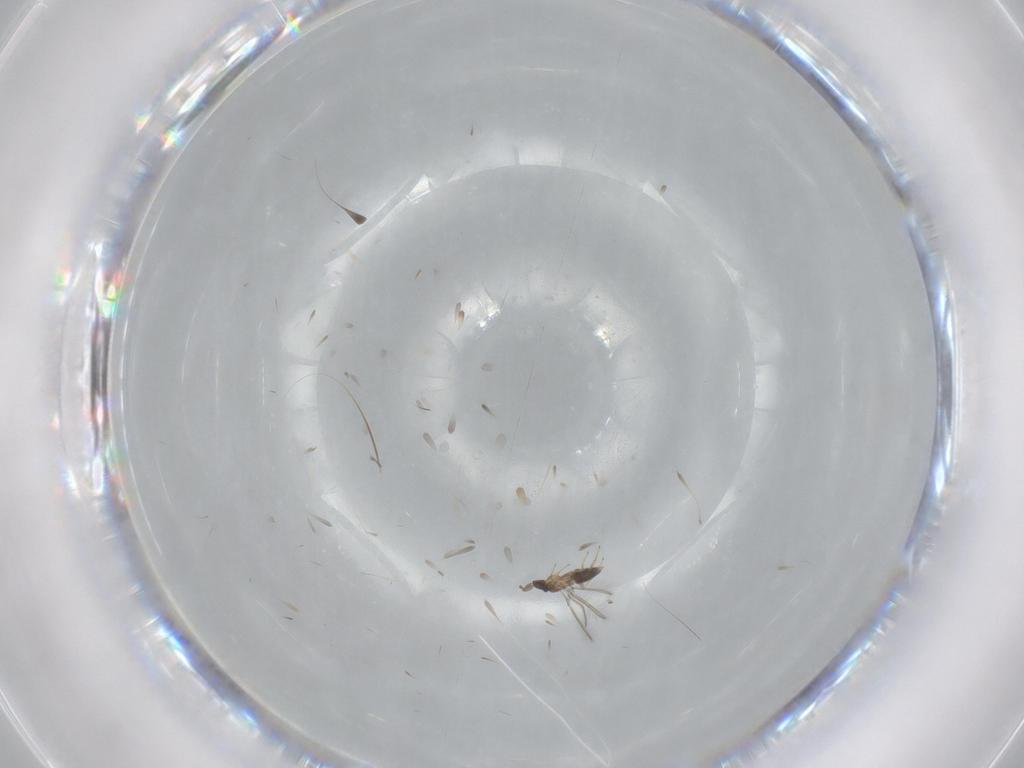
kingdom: Animalia
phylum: Arthropoda
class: Insecta
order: Hymenoptera
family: Mymaridae
